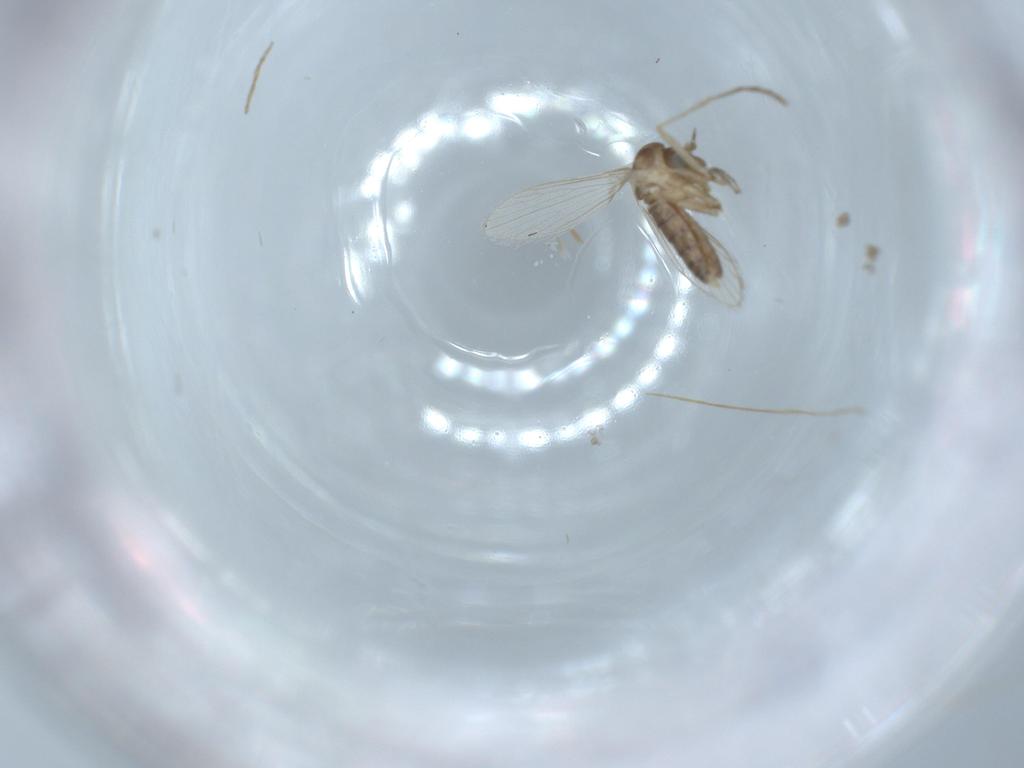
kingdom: Animalia
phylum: Arthropoda
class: Insecta
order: Diptera
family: Psychodidae
